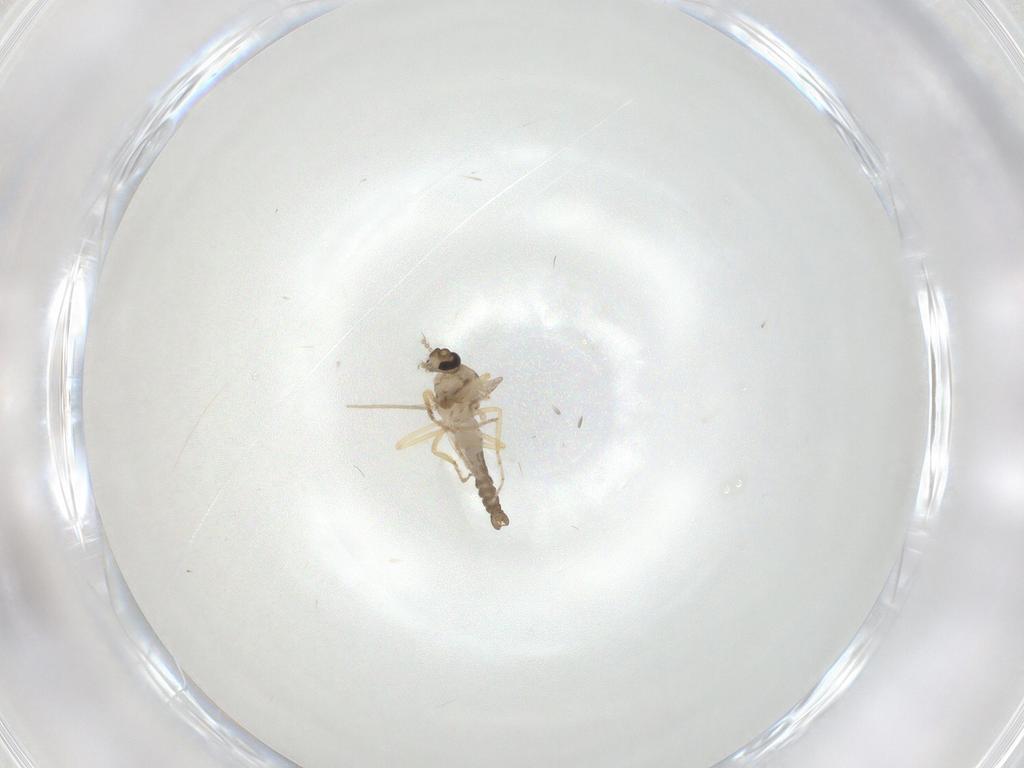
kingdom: Animalia
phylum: Arthropoda
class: Insecta
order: Diptera
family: Ceratopogonidae
